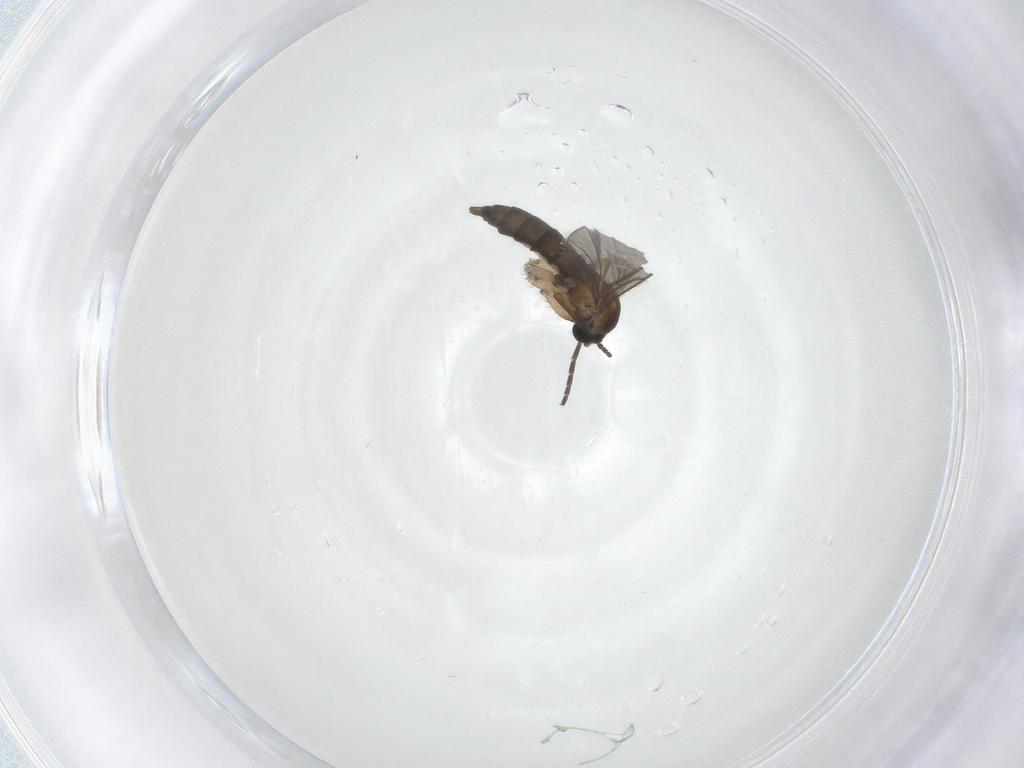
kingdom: Animalia
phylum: Arthropoda
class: Insecta
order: Diptera
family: Sciaridae
